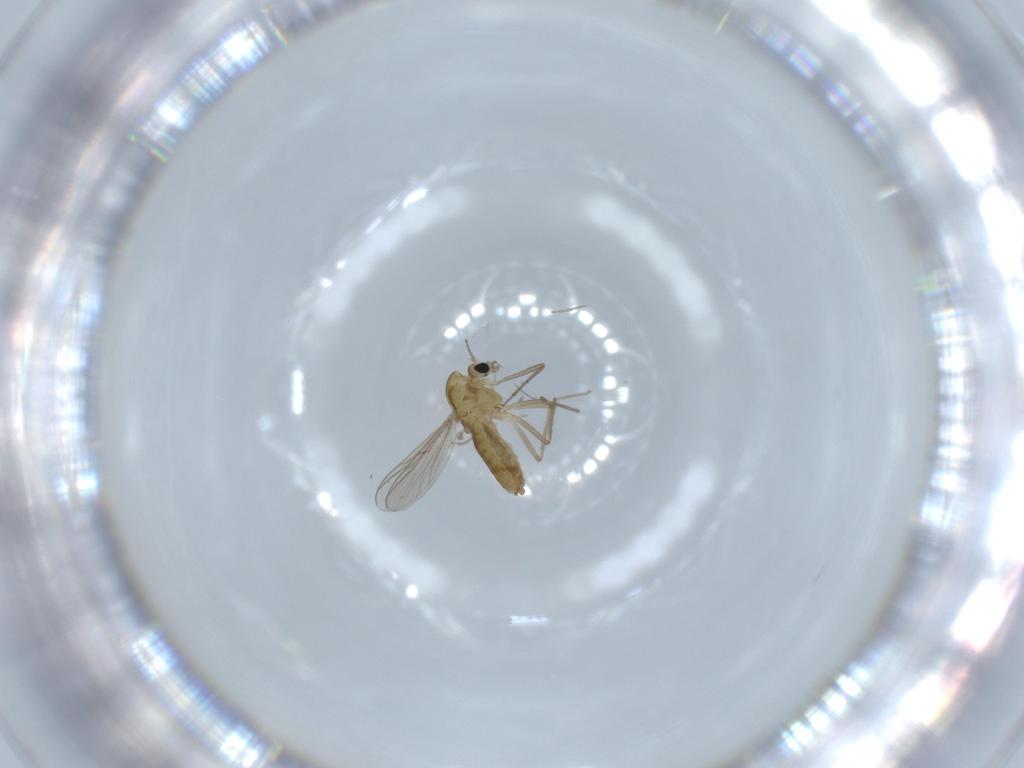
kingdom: Animalia
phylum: Arthropoda
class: Insecta
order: Diptera
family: Chironomidae
